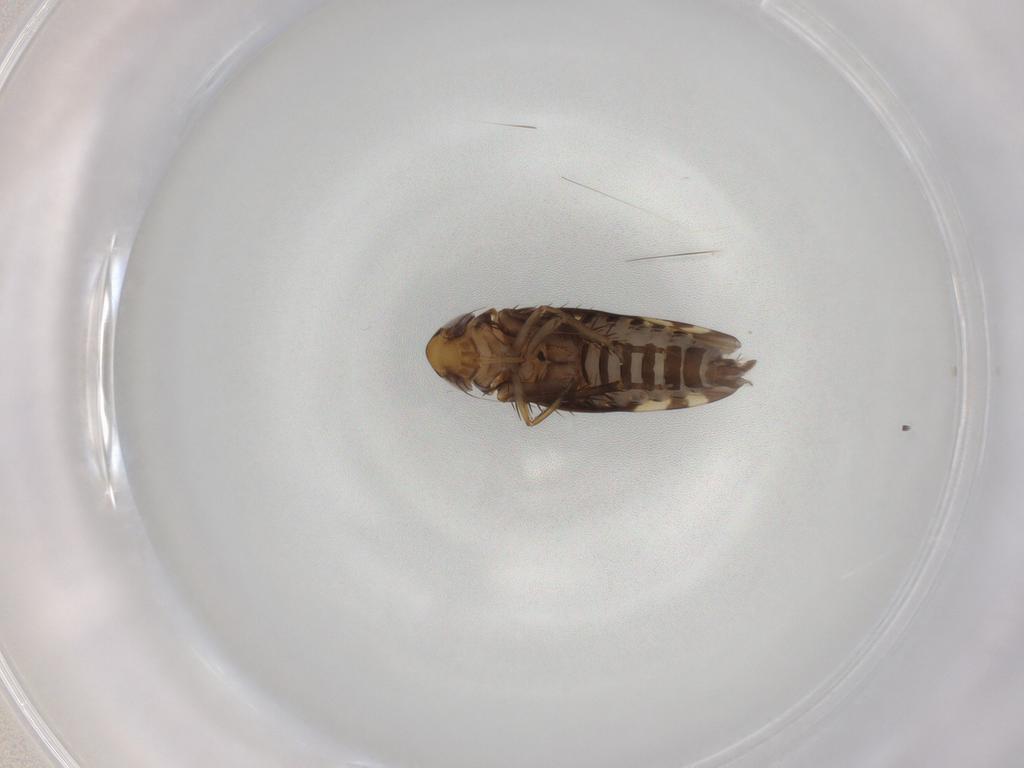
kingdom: Animalia
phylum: Arthropoda
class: Insecta
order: Hemiptera
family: Cicadellidae
